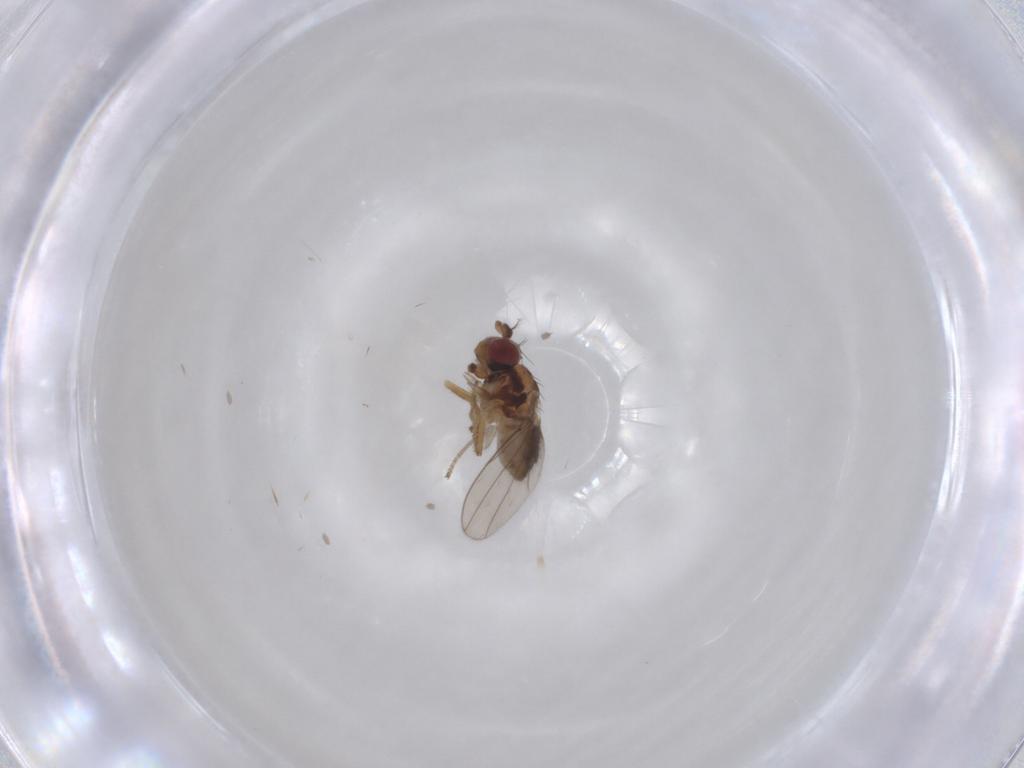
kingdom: Animalia
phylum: Arthropoda
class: Insecta
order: Diptera
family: Ephydridae
